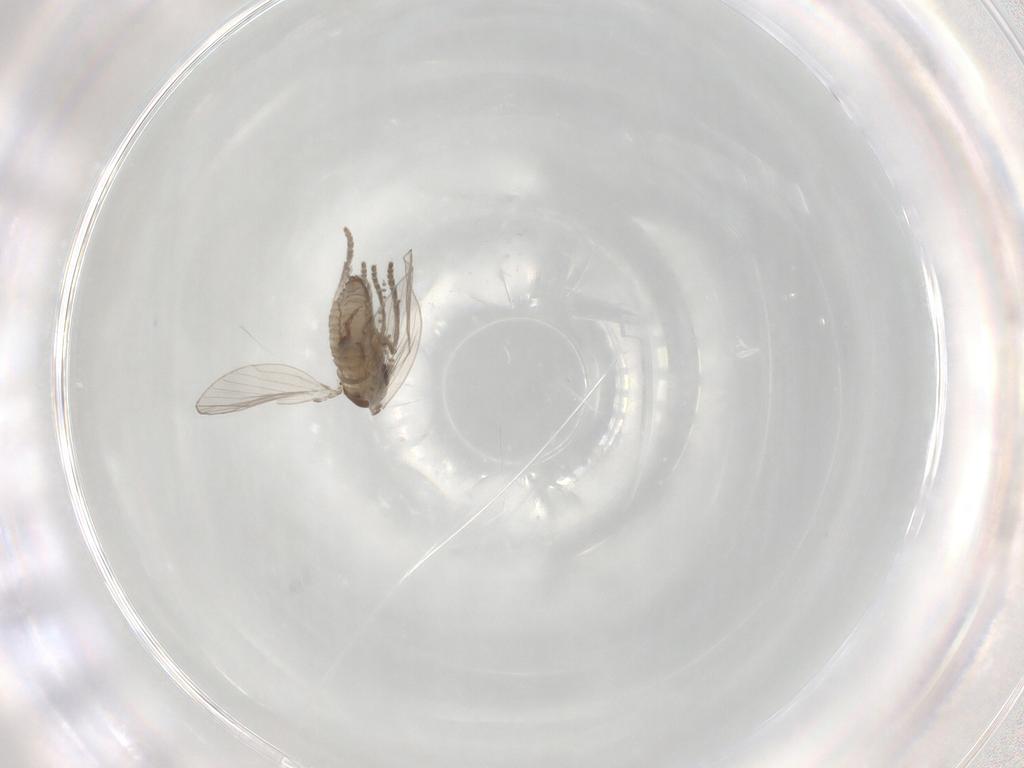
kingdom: Animalia
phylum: Arthropoda
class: Insecta
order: Diptera
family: Psychodidae
